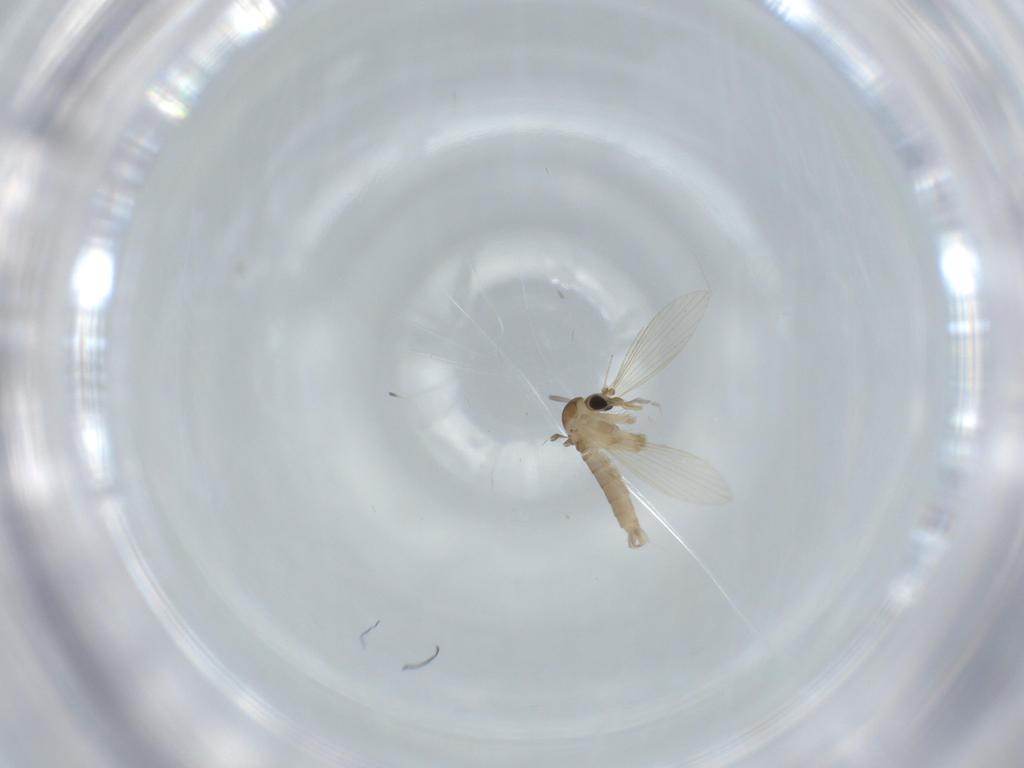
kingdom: Animalia
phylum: Arthropoda
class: Insecta
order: Diptera
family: Psychodidae
